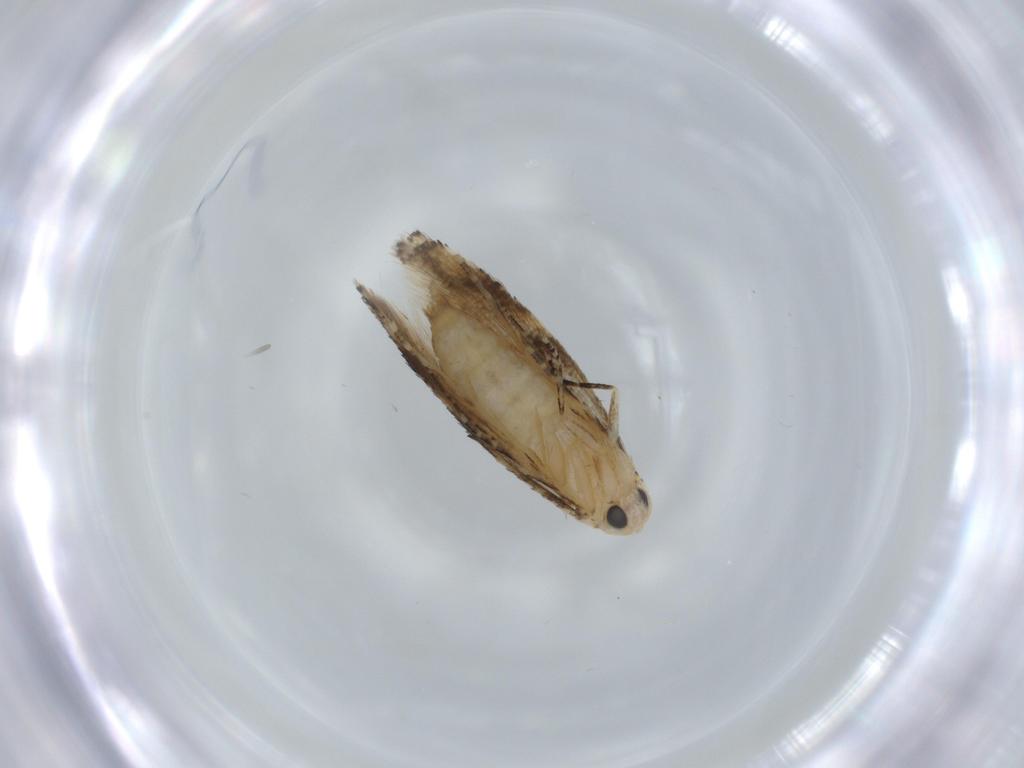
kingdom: Animalia
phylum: Arthropoda
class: Insecta
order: Lepidoptera
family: Bucculatricidae
